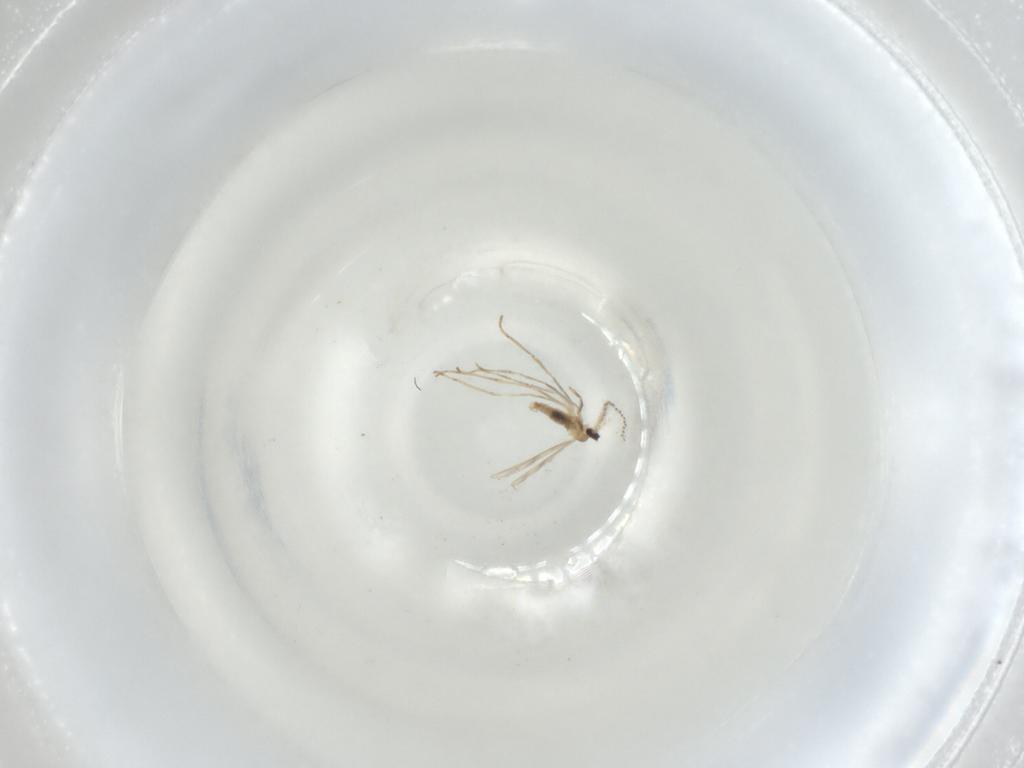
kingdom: Animalia
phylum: Arthropoda
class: Insecta
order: Diptera
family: Cecidomyiidae
